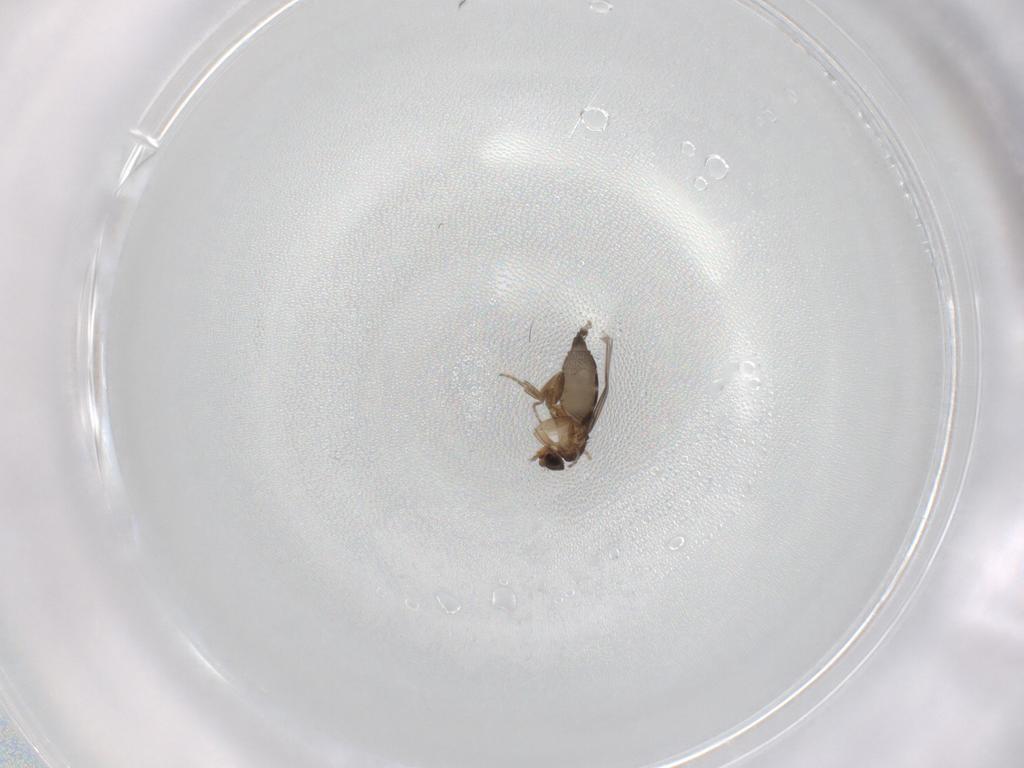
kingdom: Animalia
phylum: Arthropoda
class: Insecta
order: Diptera
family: Phoridae
